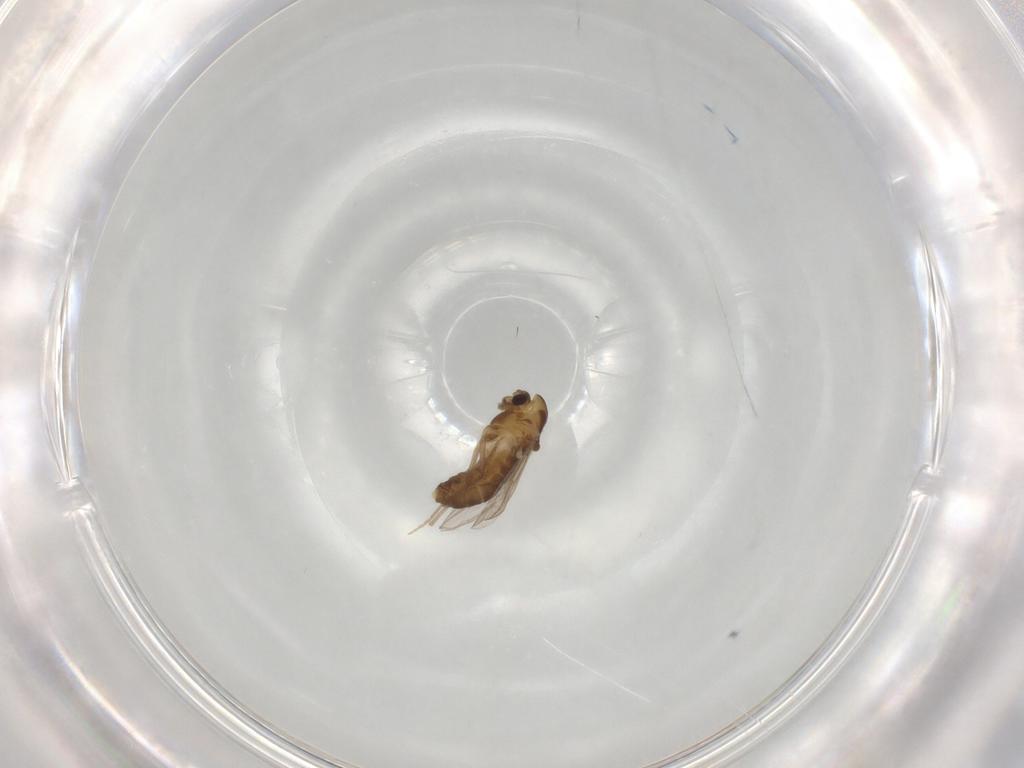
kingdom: Animalia
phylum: Arthropoda
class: Insecta
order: Diptera
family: Chironomidae
